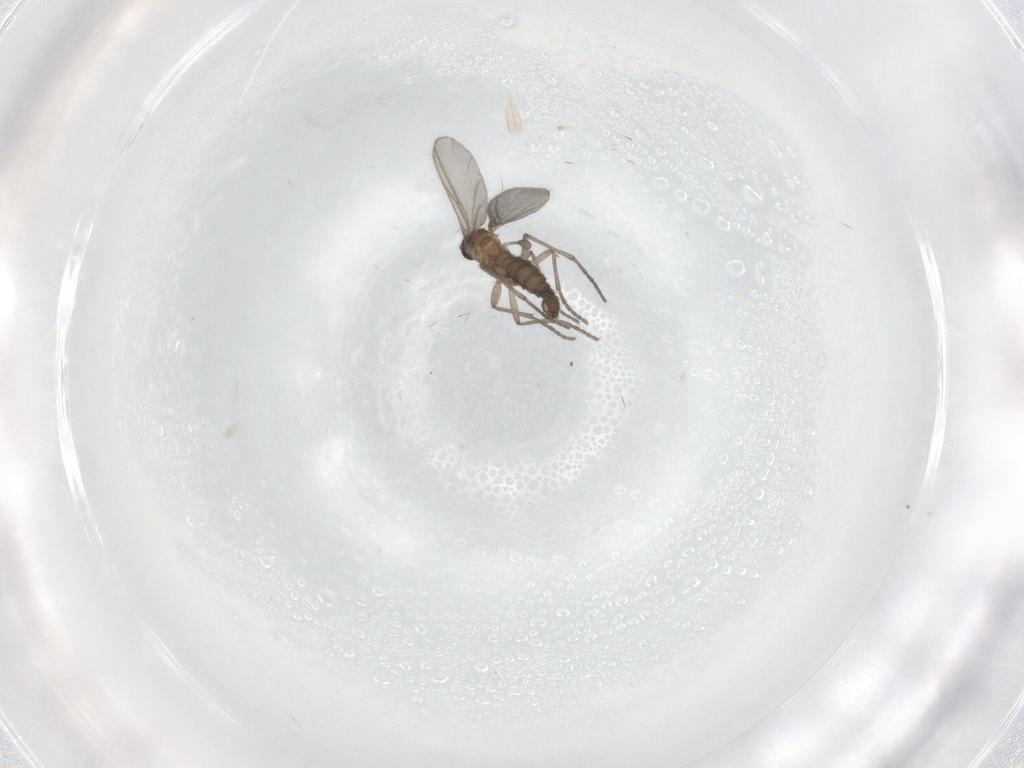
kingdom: Animalia
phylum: Arthropoda
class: Insecta
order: Diptera
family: Sciaridae
